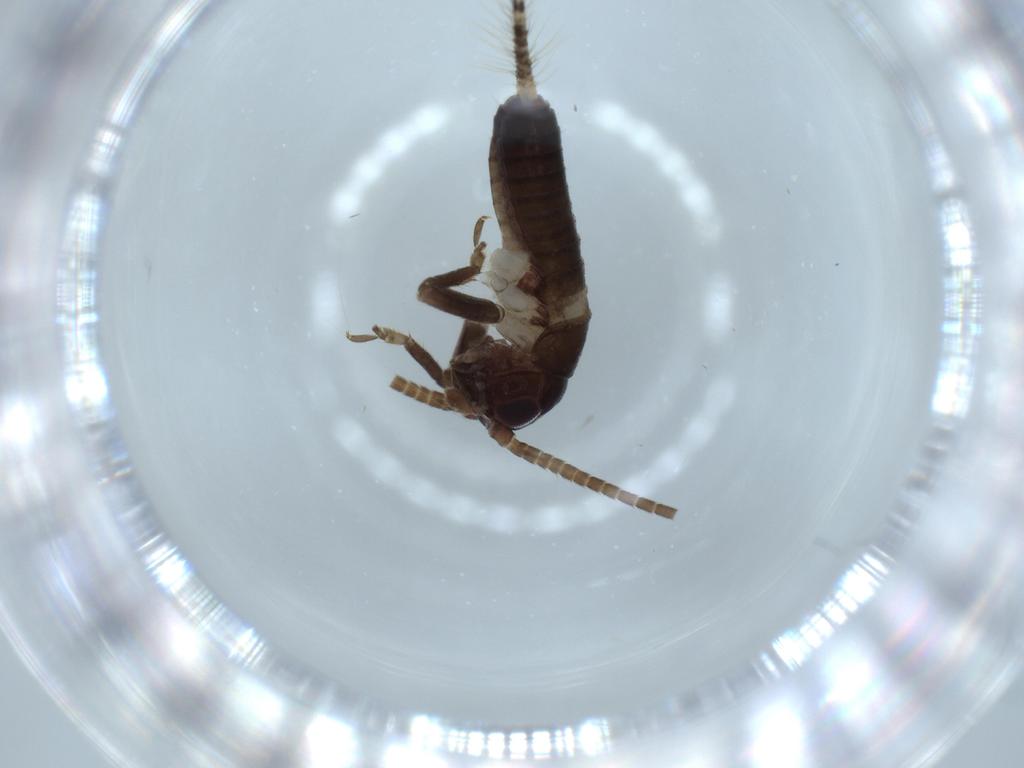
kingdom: Animalia
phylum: Arthropoda
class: Insecta
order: Orthoptera
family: Gryllidae
